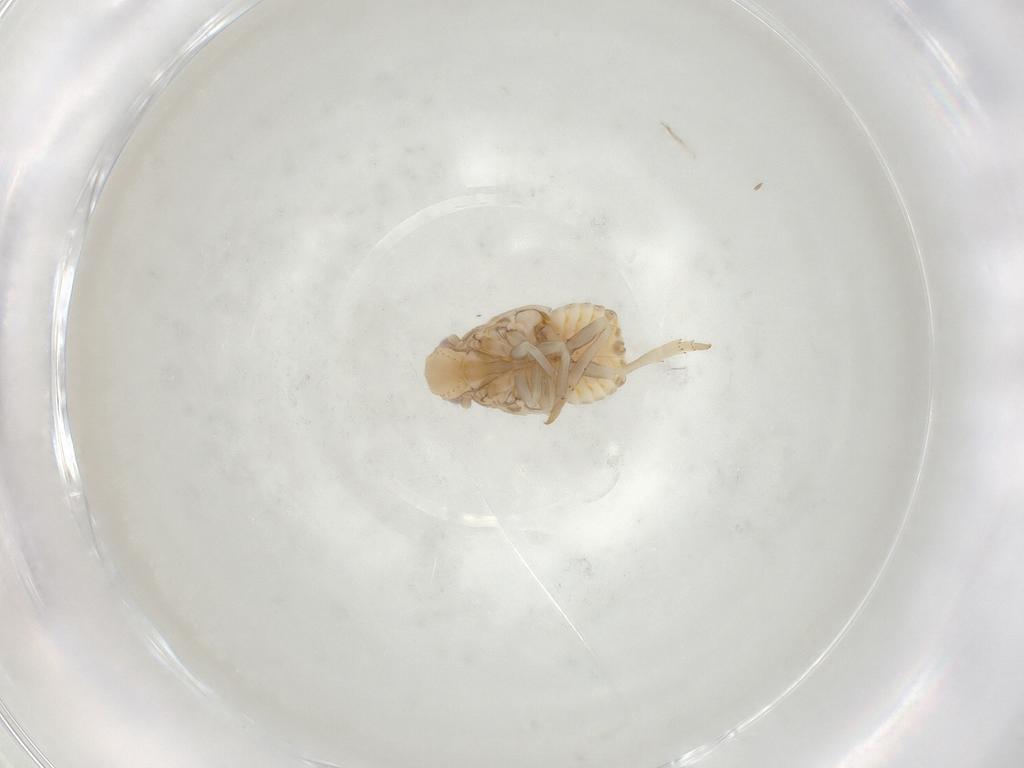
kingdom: Animalia
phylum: Arthropoda
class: Insecta
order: Hemiptera
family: Flatidae
